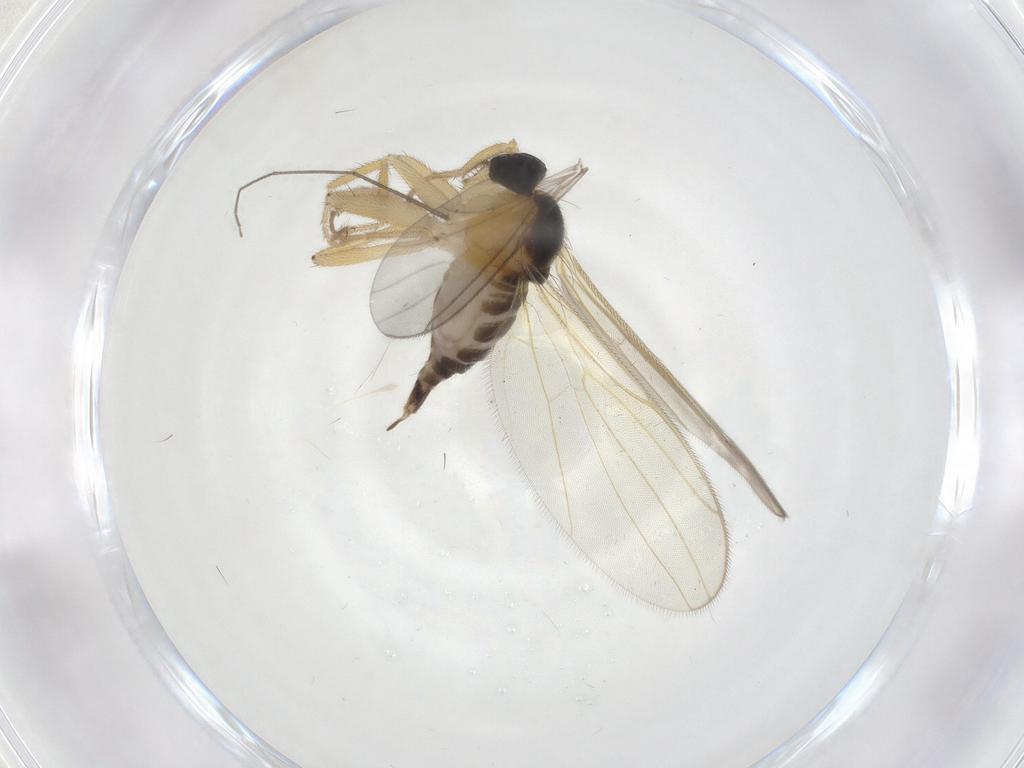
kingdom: Animalia
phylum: Arthropoda
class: Insecta
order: Diptera
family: Hybotidae
